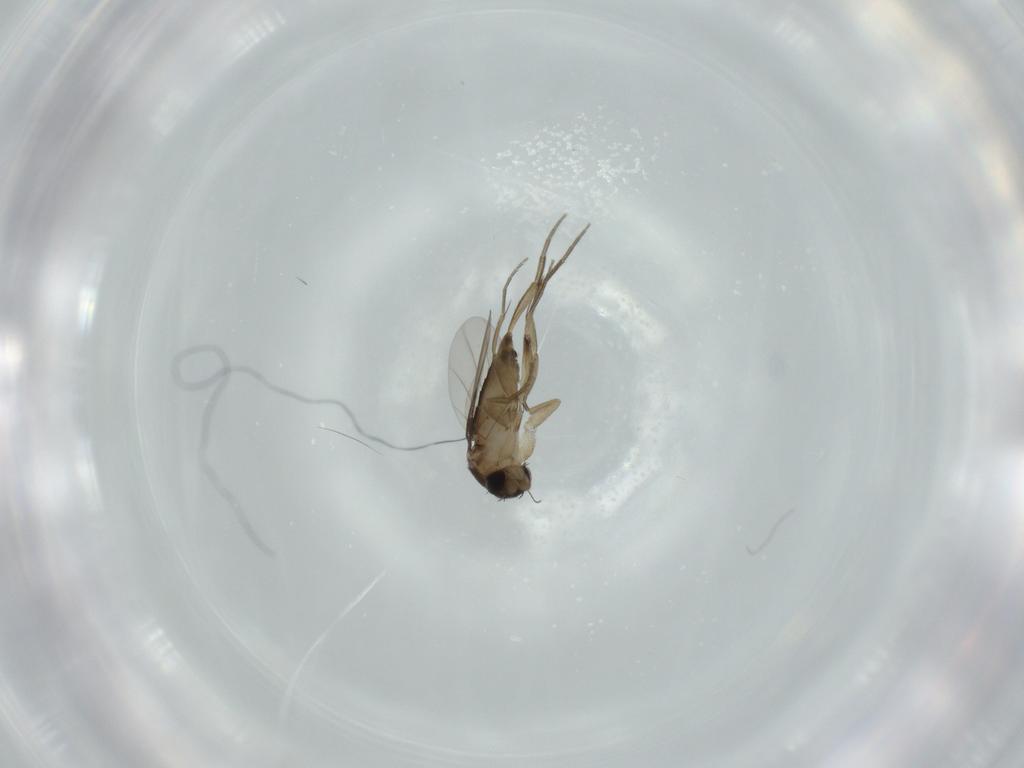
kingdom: Animalia
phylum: Arthropoda
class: Insecta
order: Diptera
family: Phoridae
